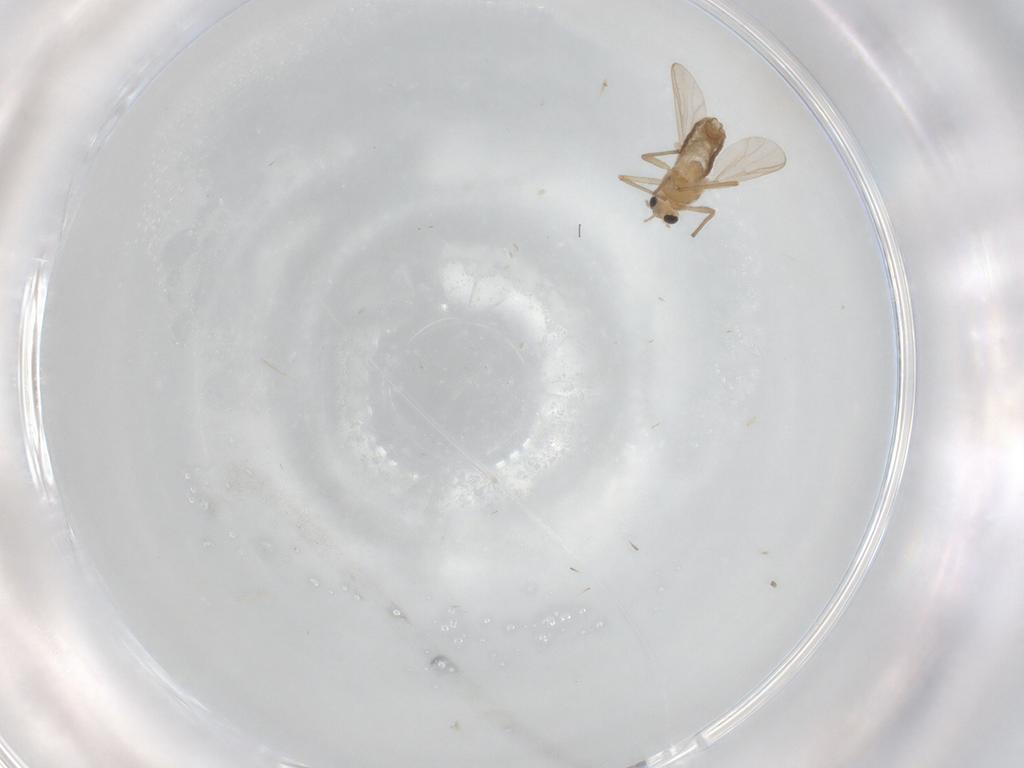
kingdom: Animalia
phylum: Arthropoda
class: Insecta
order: Diptera
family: Chironomidae
